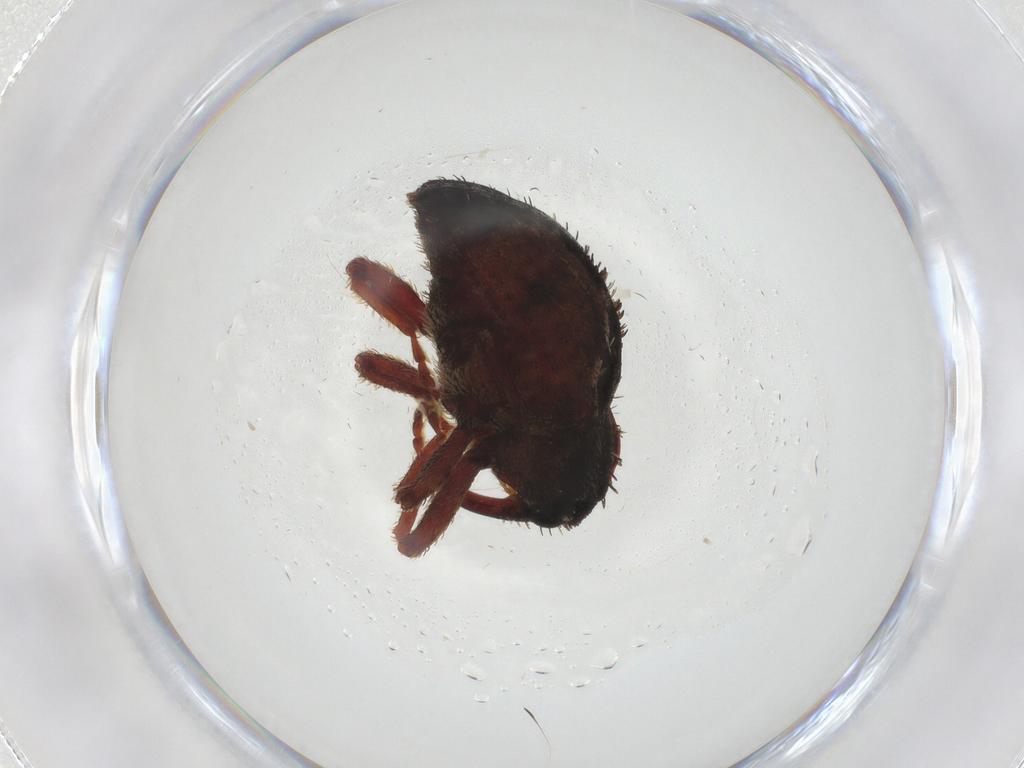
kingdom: Animalia
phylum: Arthropoda
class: Insecta
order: Coleoptera
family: Curculionidae
